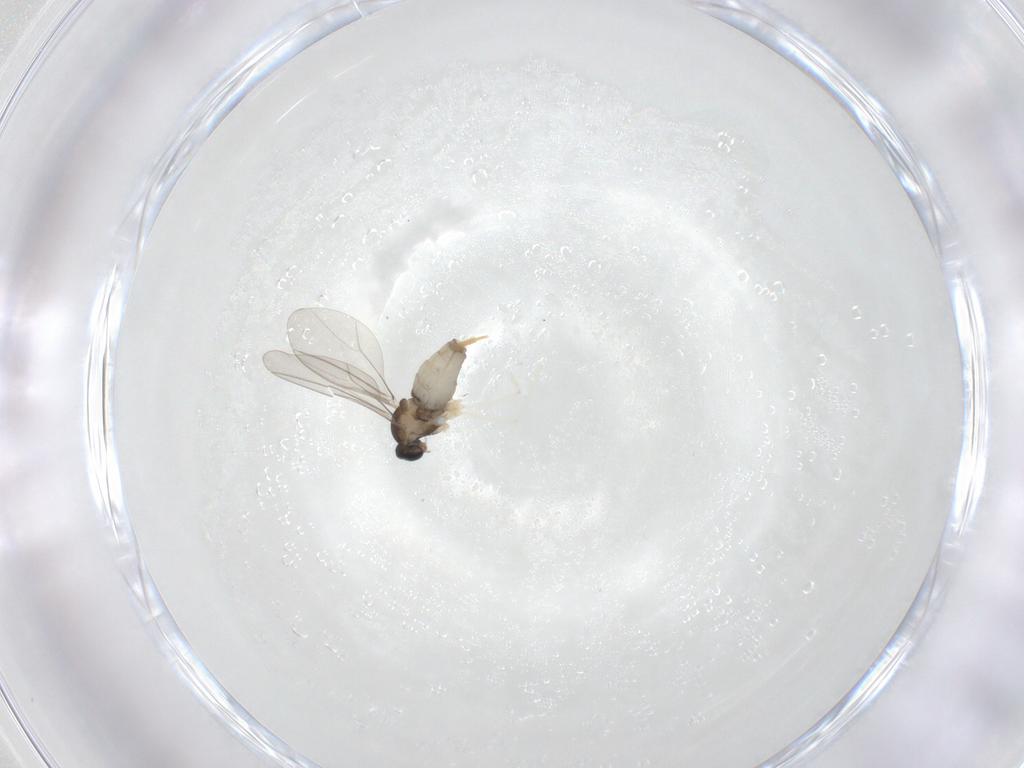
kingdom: Animalia
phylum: Arthropoda
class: Insecta
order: Diptera
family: Cecidomyiidae
